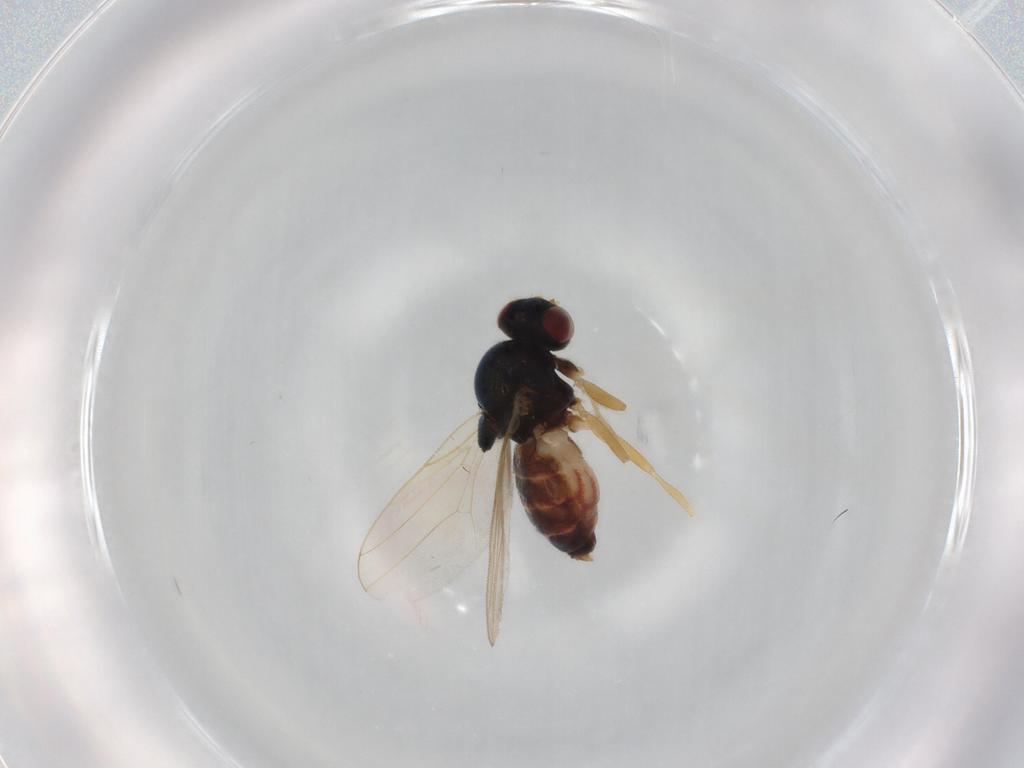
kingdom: Animalia
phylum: Arthropoda
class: Insecta
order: Diptera
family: Chloropidae
